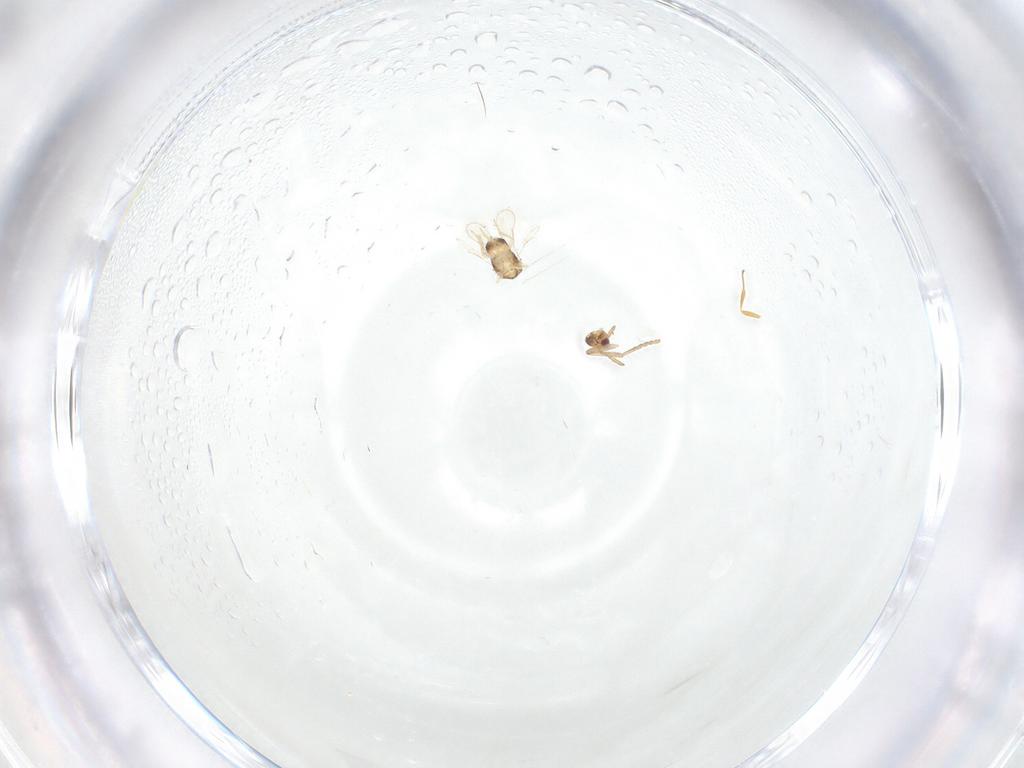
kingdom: Animalia
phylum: Arthropoda
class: Insecta
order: Hymenoptera
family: Aphelinidae
